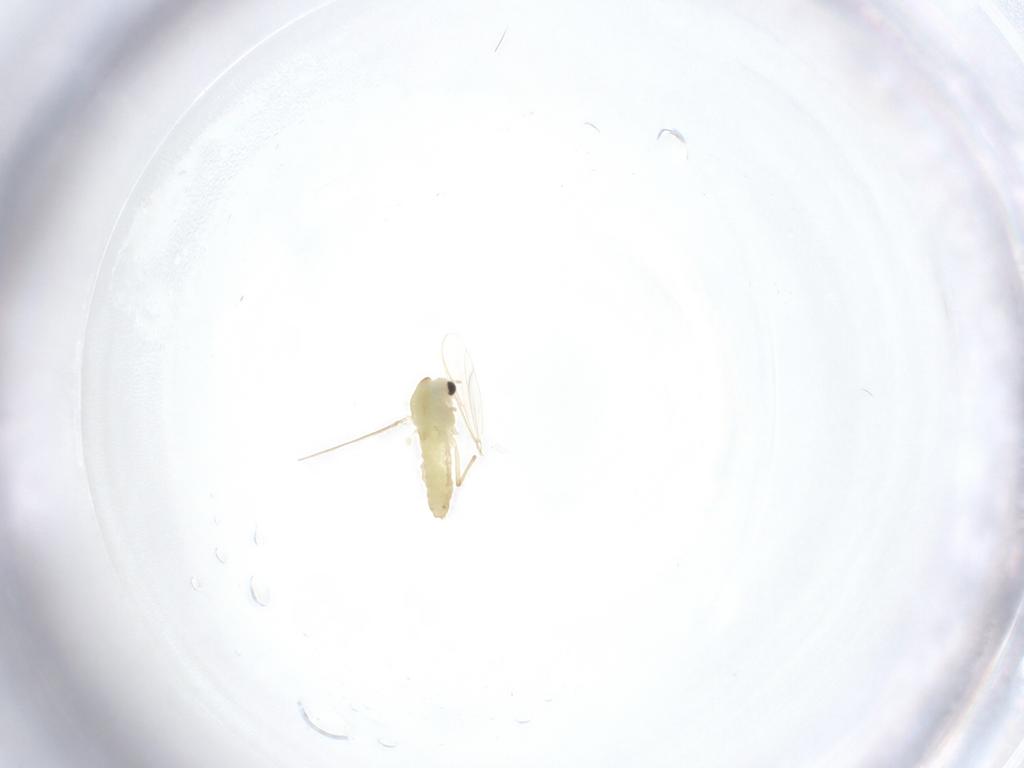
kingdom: Animalia
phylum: Arthropoda
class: Insecta
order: Diptera
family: Chironomidae
